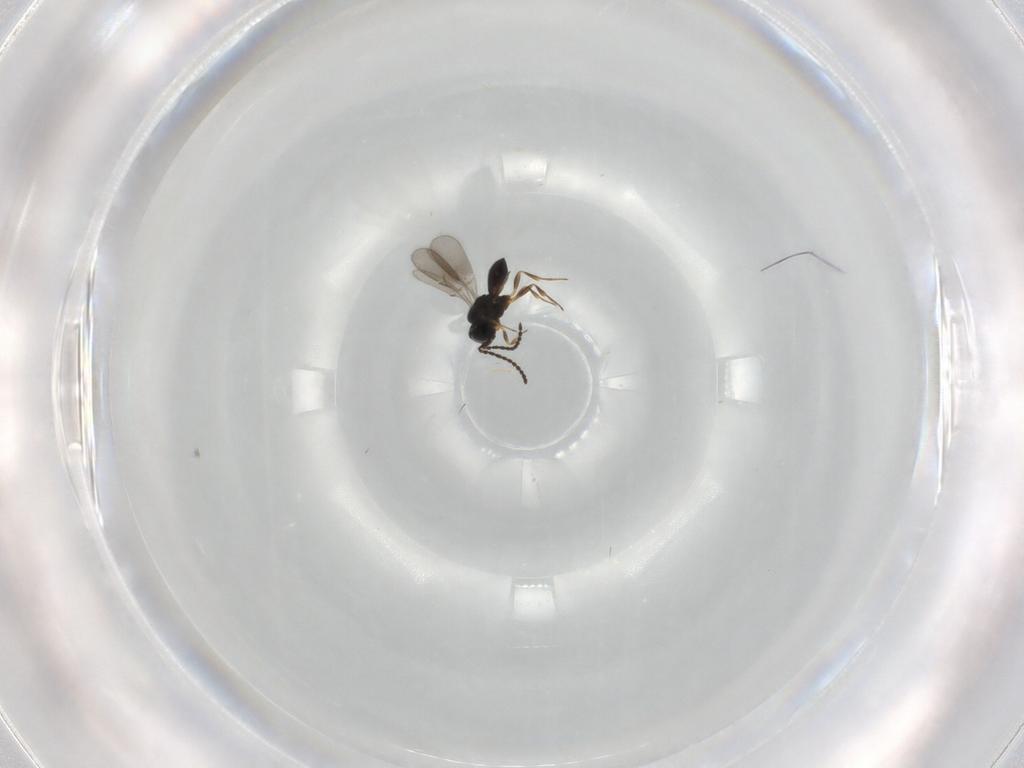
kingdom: Animalia
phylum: Arthropoda
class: Insecta
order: Hymenoptera
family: Scelionidae
